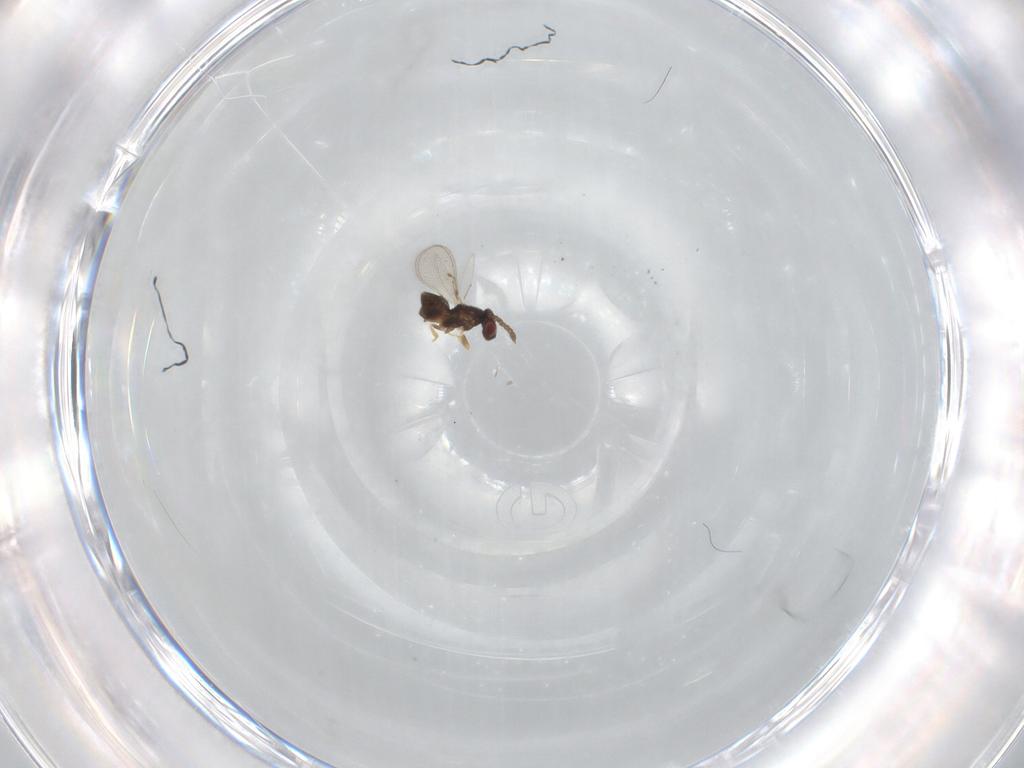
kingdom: Animalia
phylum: Arthropoda
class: Insecta
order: Hymenoptera
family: Eulophidae
